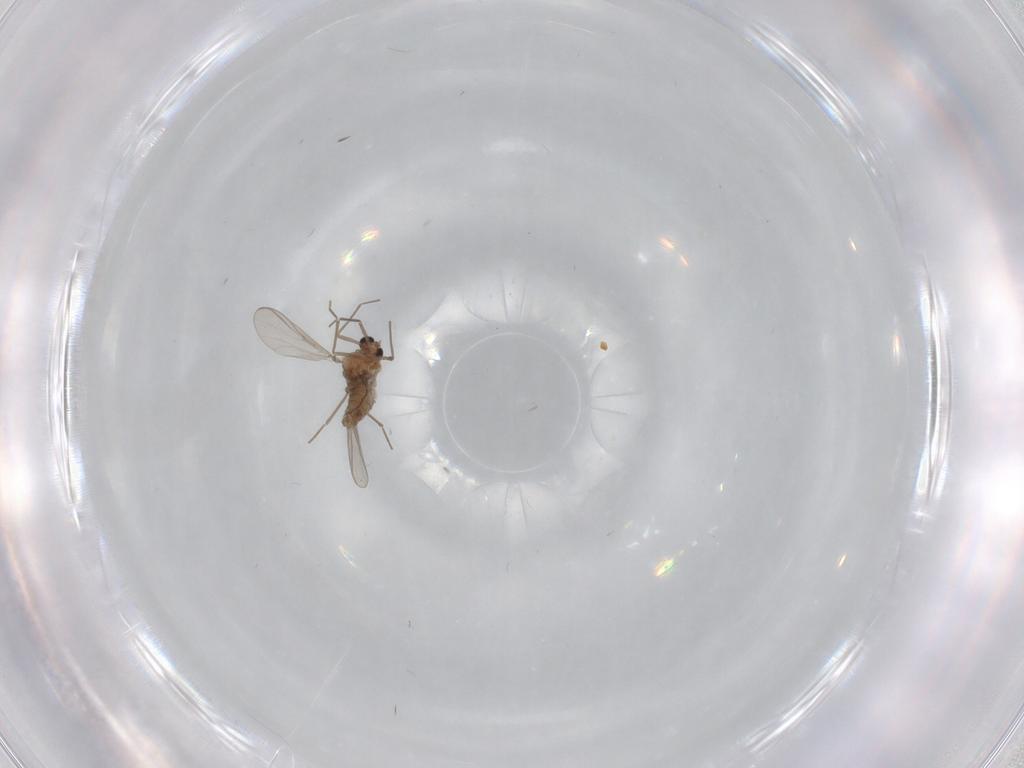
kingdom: Animalia
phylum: Arthropoda
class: Insecta
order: Diptera
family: Chironomidae
